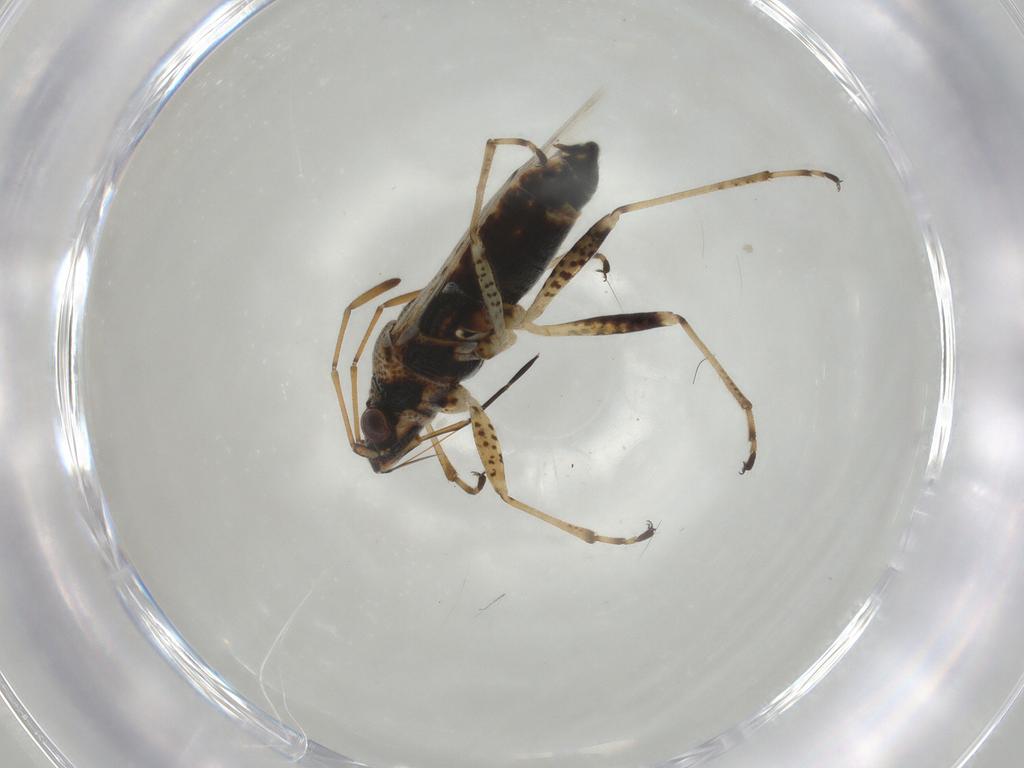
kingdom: Animalia
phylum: Arthropoda
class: Insecta
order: Hemiptera
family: Cicadellidae
